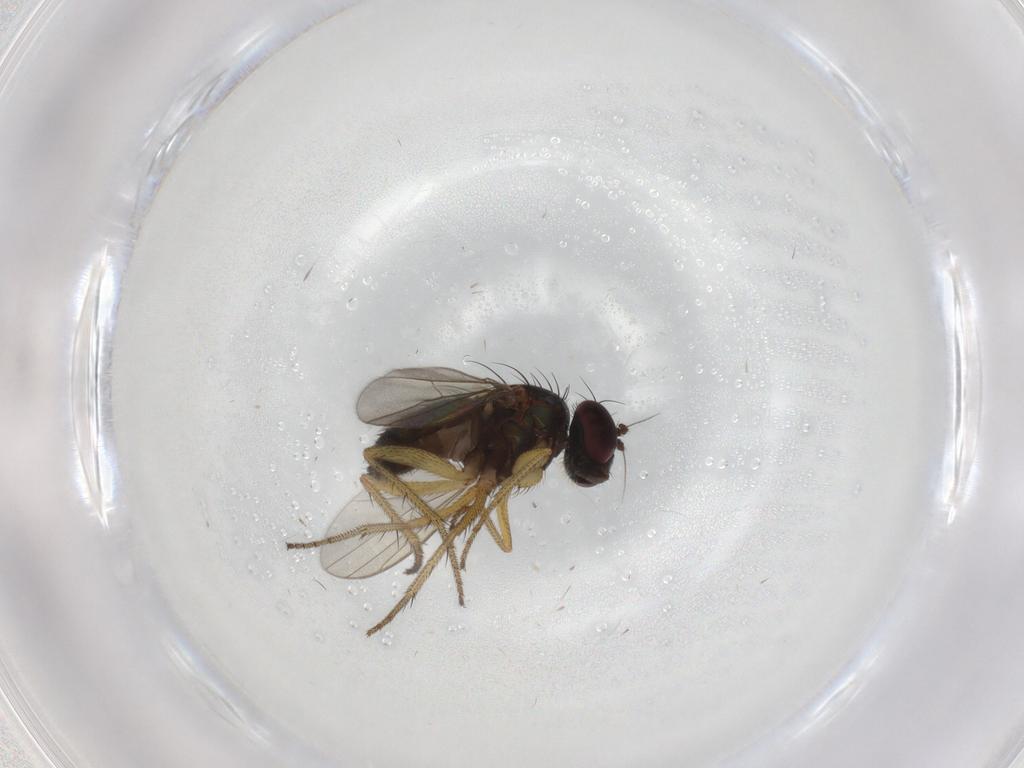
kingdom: Animalia
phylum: Arthropoda
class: Insecta
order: Diptera
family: Dolichopodidae
